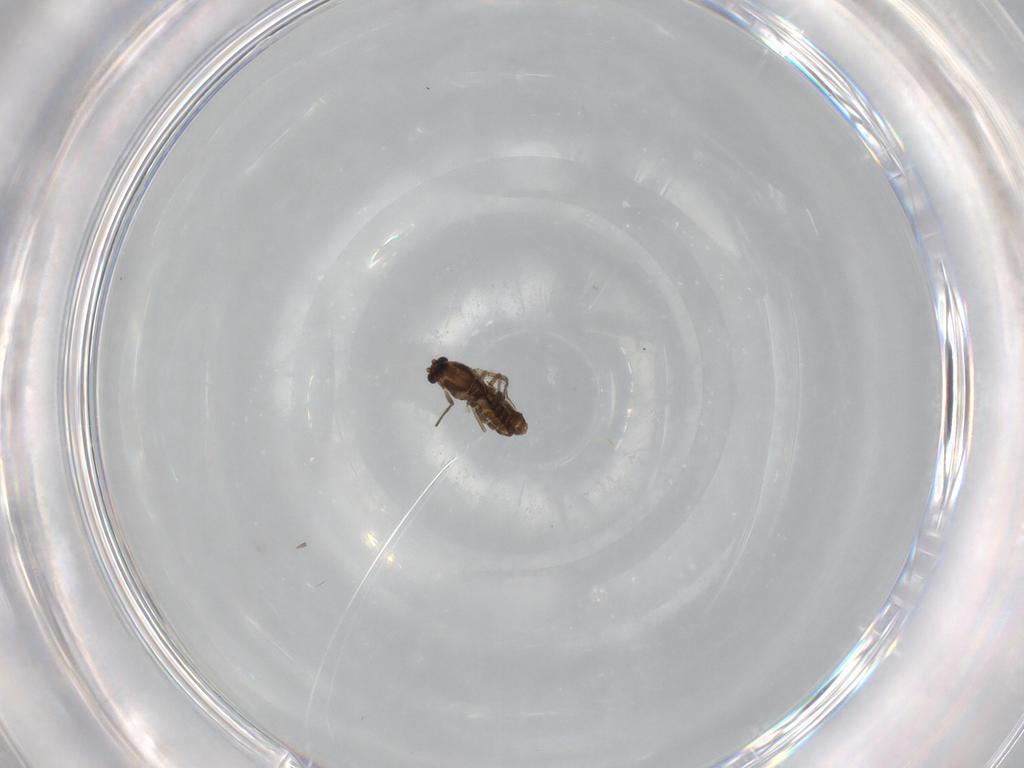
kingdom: Animalia
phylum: Arthropoda
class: Insecta
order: Diptera
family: Chironomidae
